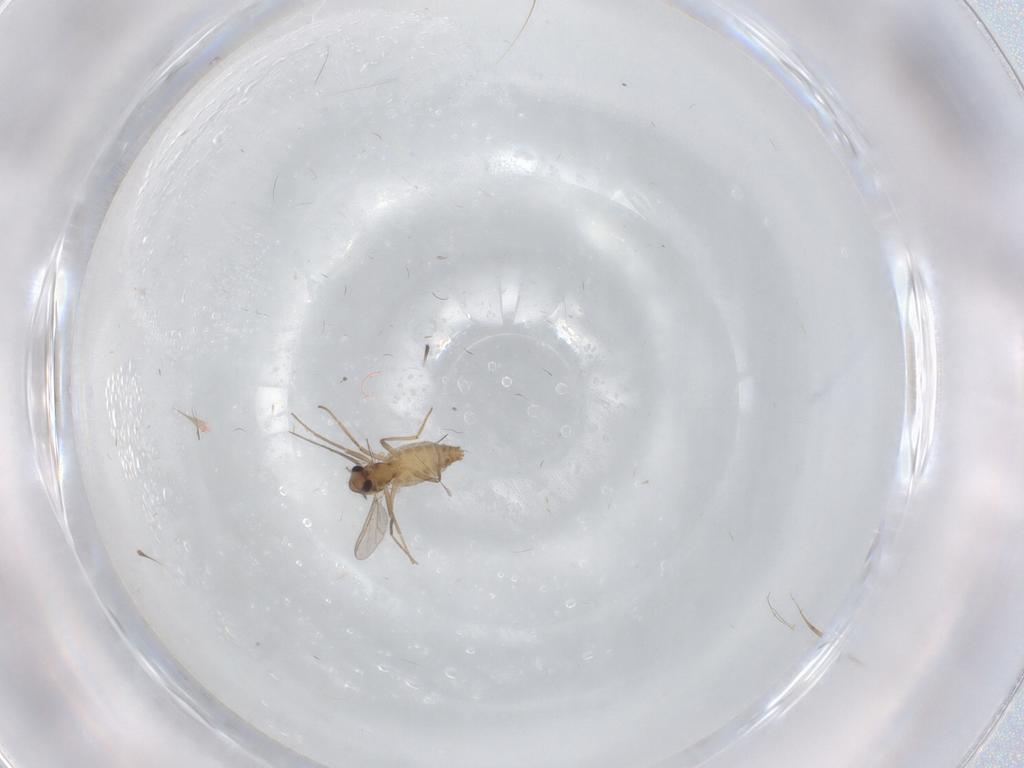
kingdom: Animalia
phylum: Arthropoda
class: Insecta
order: Diptera
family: Chironomidae
